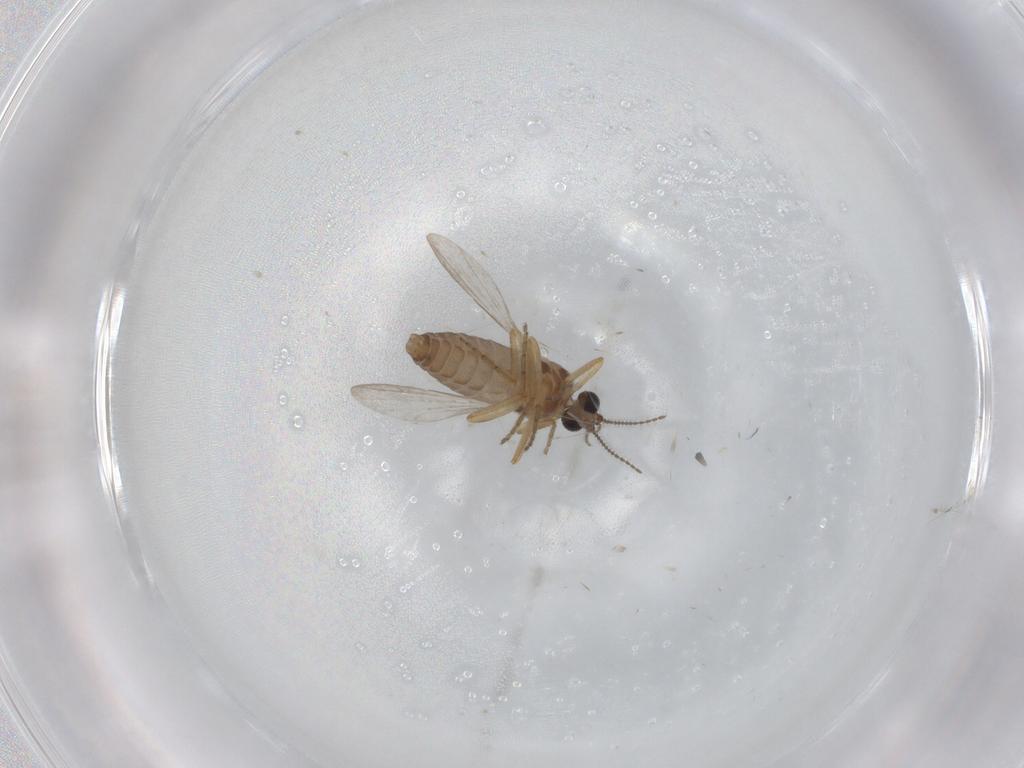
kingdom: Animalia
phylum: Arthropoda
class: Insecta
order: Diptera
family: Ceratopogonidae
